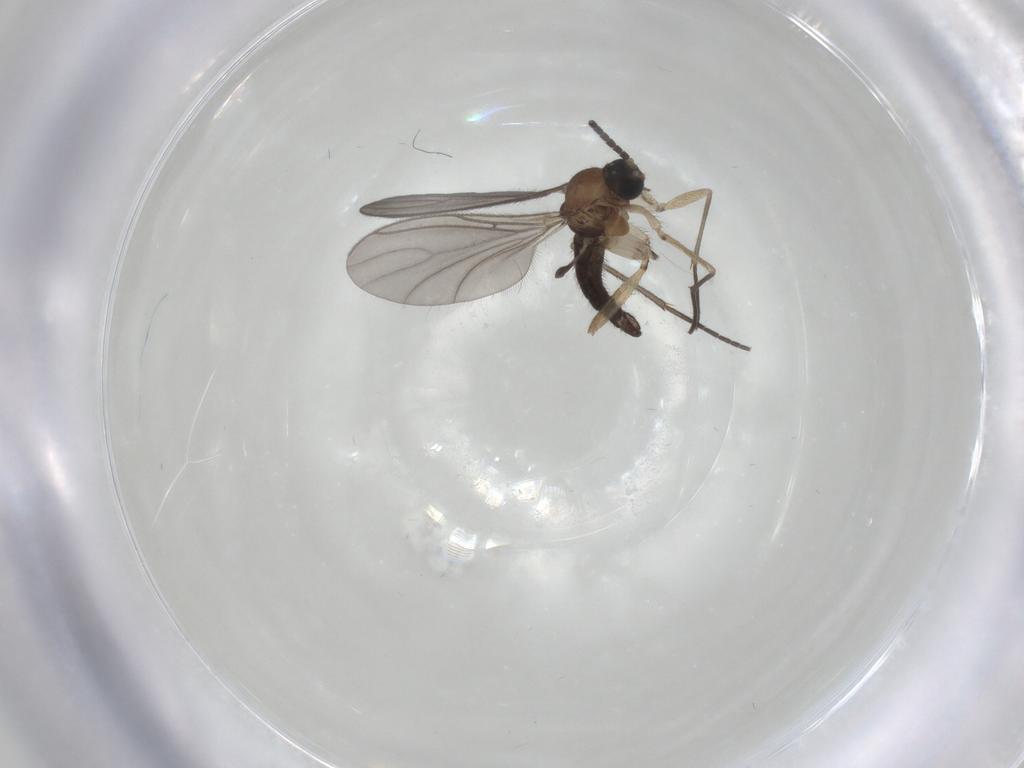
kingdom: Animalia
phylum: Arthropoda
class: Insecta
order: Diptera
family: Sciaridae
